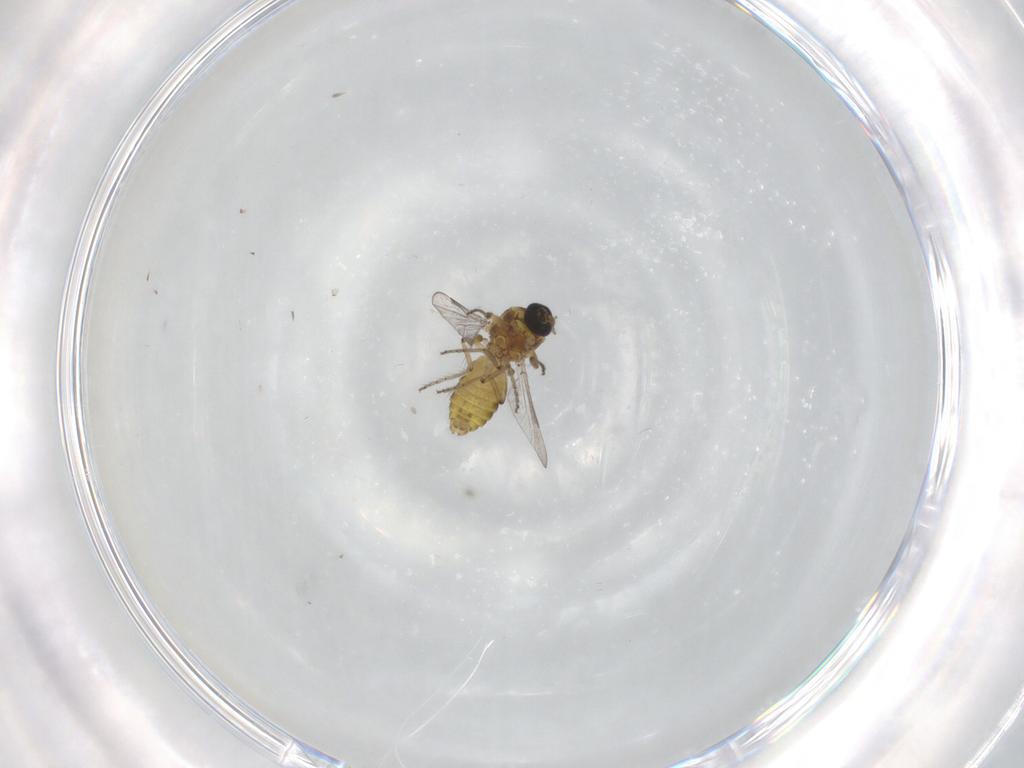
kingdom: Animalia
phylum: Arthropoda
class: Insecta
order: Diptera
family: Ceratopogonidae
